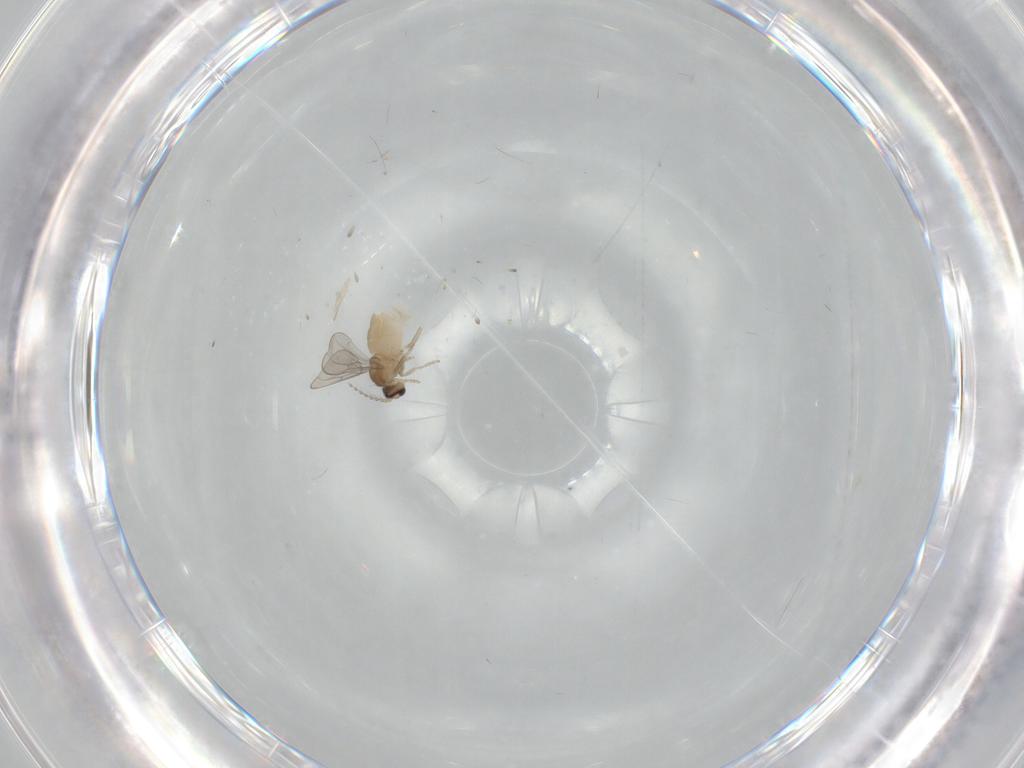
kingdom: Animalia
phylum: Arthropoda
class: Insecta
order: Diptera
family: Cecidomyiidae
